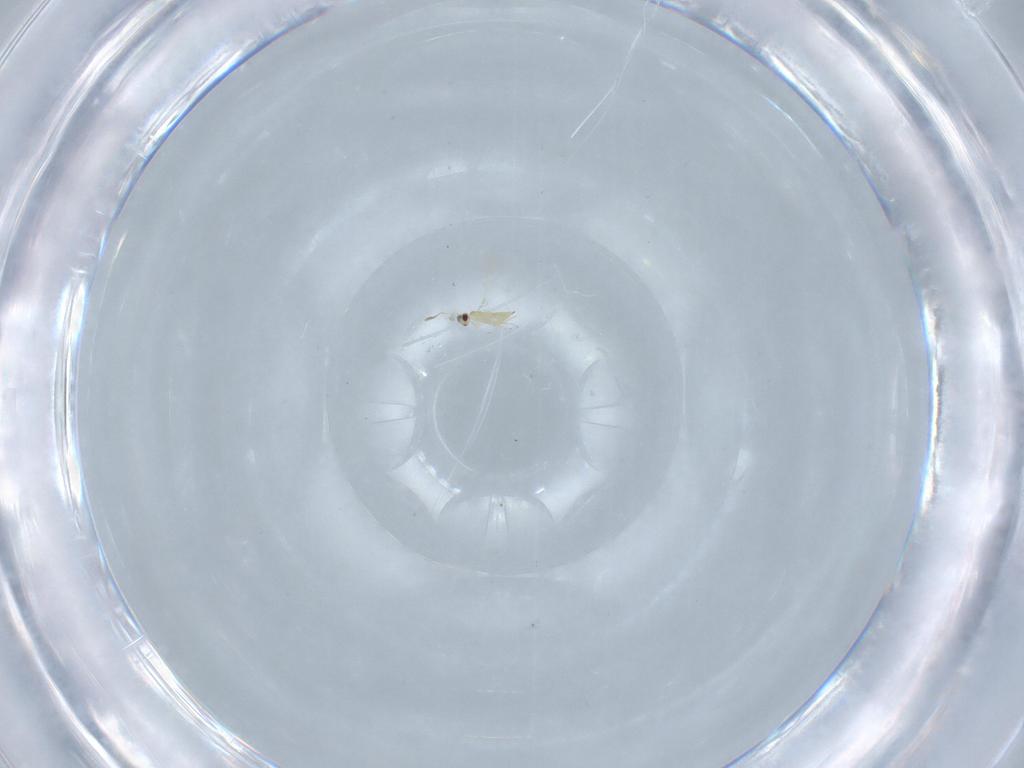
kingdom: Animalia
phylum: Arthropoda
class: Insecta
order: Hymenoptera
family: Mymaridae
